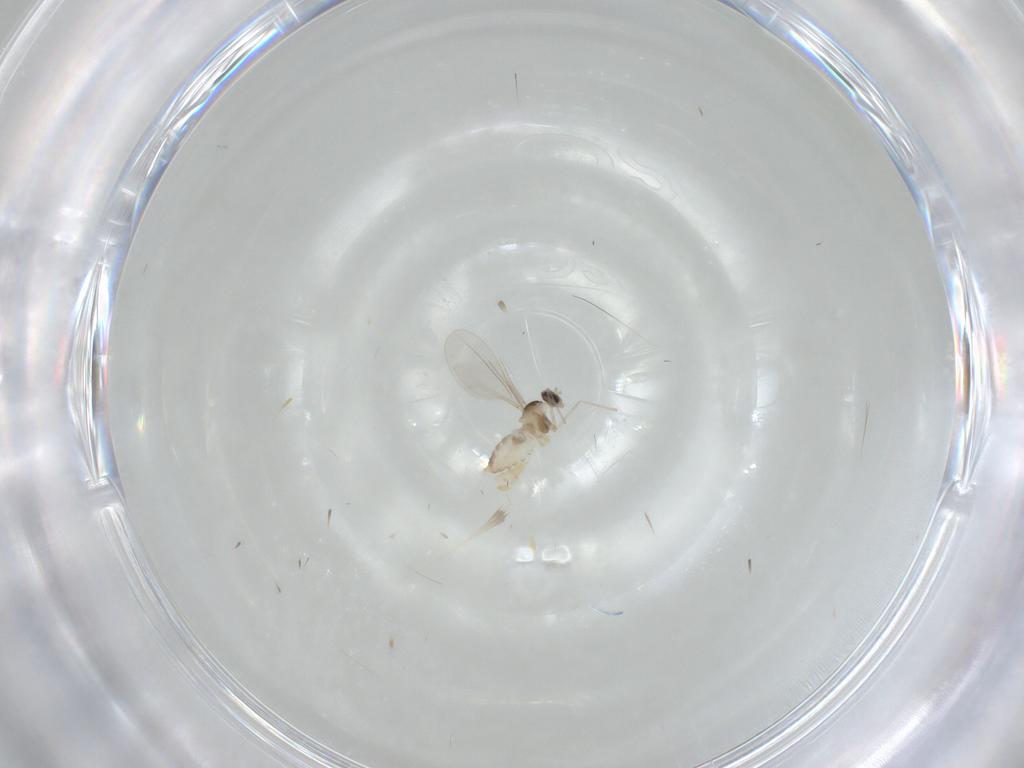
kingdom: Animalia
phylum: Arthropoda
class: Insecta
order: Diptera
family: Cecidomyiidae
